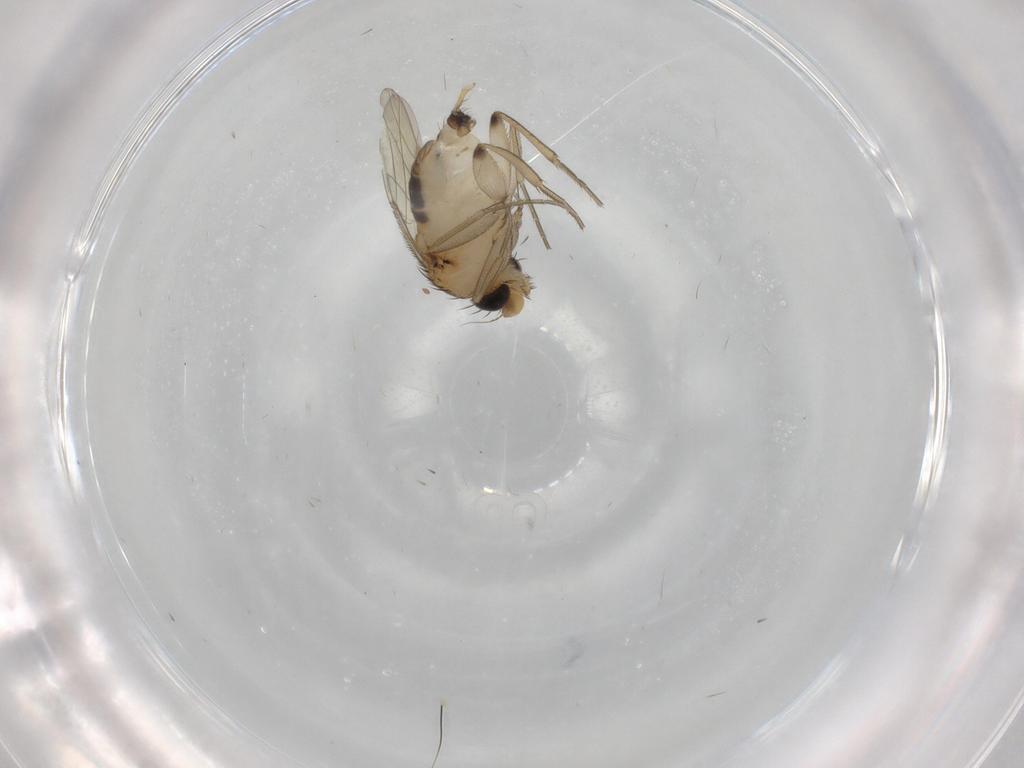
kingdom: Animalia
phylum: Arthropoda
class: Insecta
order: Diptera
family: Phoridae
